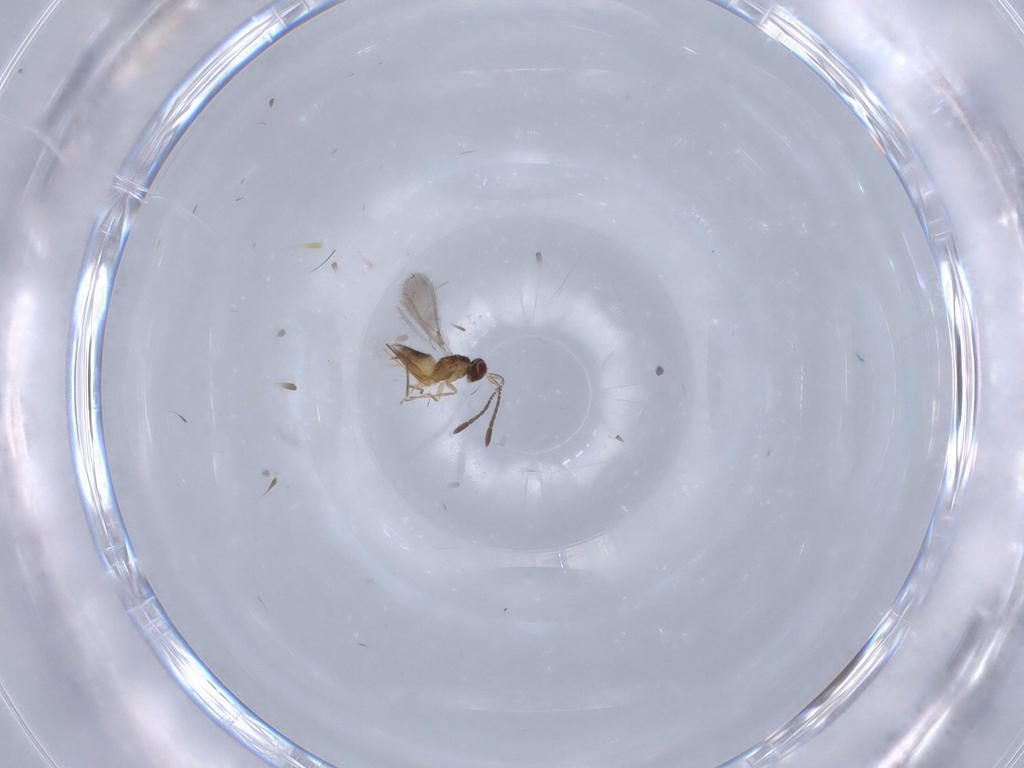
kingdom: Animalia
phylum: Arthropoda
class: Insecta
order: Hymenoptera
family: Mymaridae
